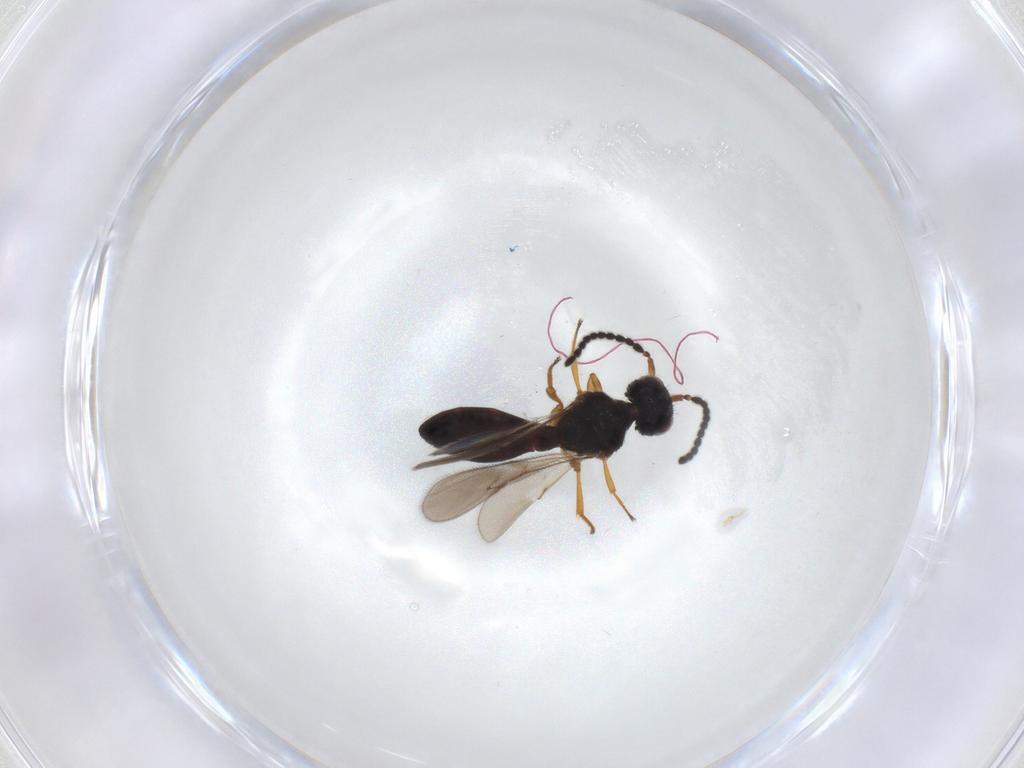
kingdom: Animalia
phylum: Arthropoda
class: Insecta
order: Hymenoptera
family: Scelionidae
